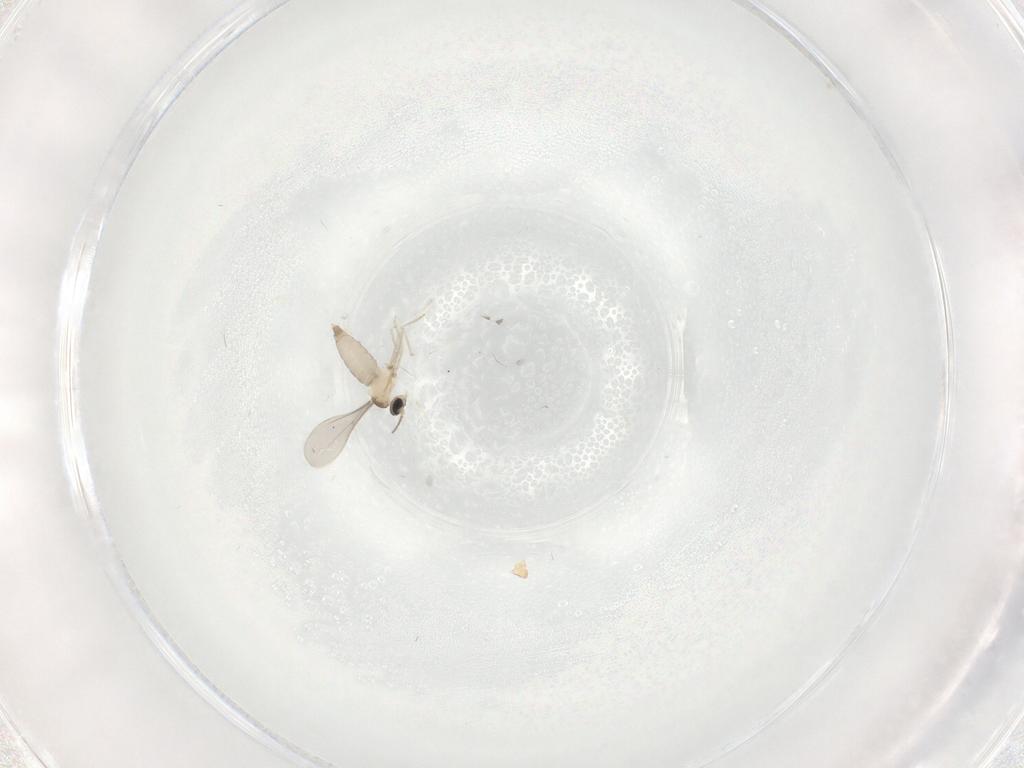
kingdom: Animalia
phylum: Arthropoda
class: Insecta
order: Diptera
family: Cecidomyiidae
